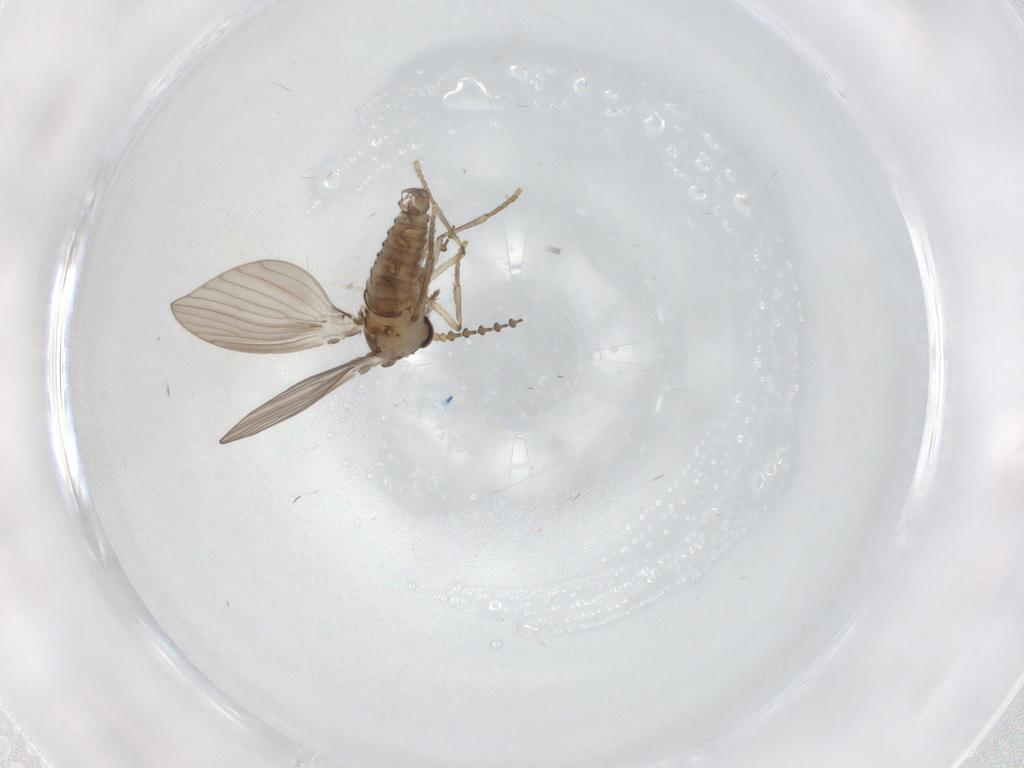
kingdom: Animalia
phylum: Arthropoda
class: Insecta
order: Diptera
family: Psychodidae
